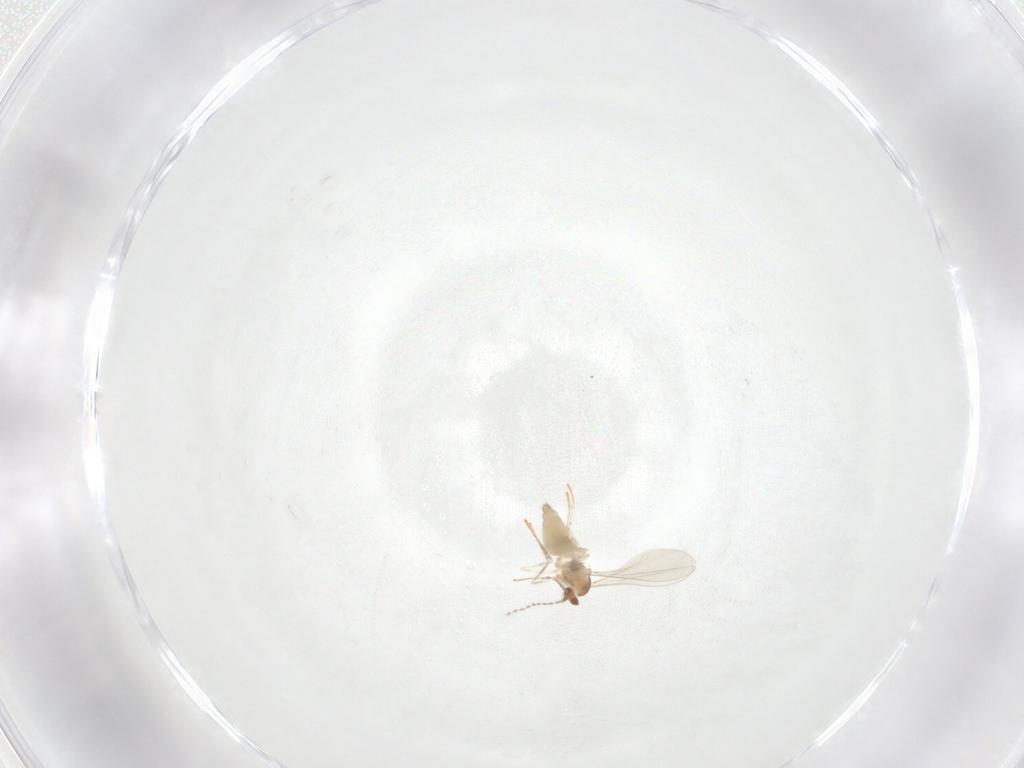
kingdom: Animalia
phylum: Arthropoda
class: Insecta
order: Diptera
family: Cecidomyiidae
